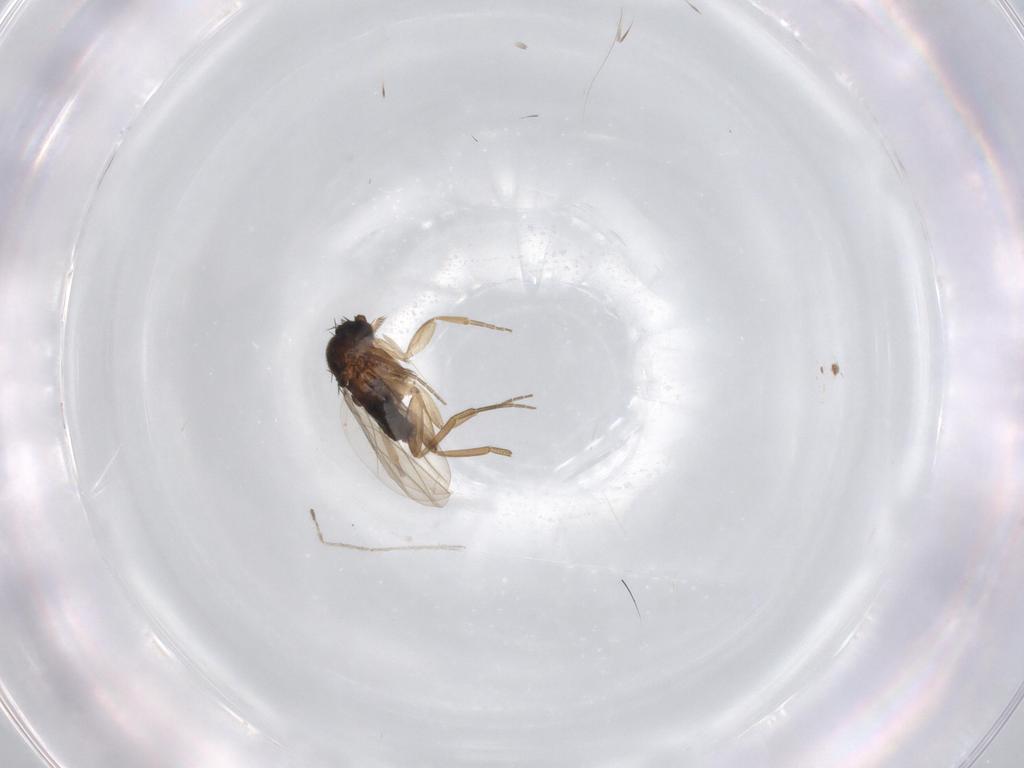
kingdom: Animalia
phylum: Arthropoda
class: Insecta
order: Diptera
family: Phoridae
